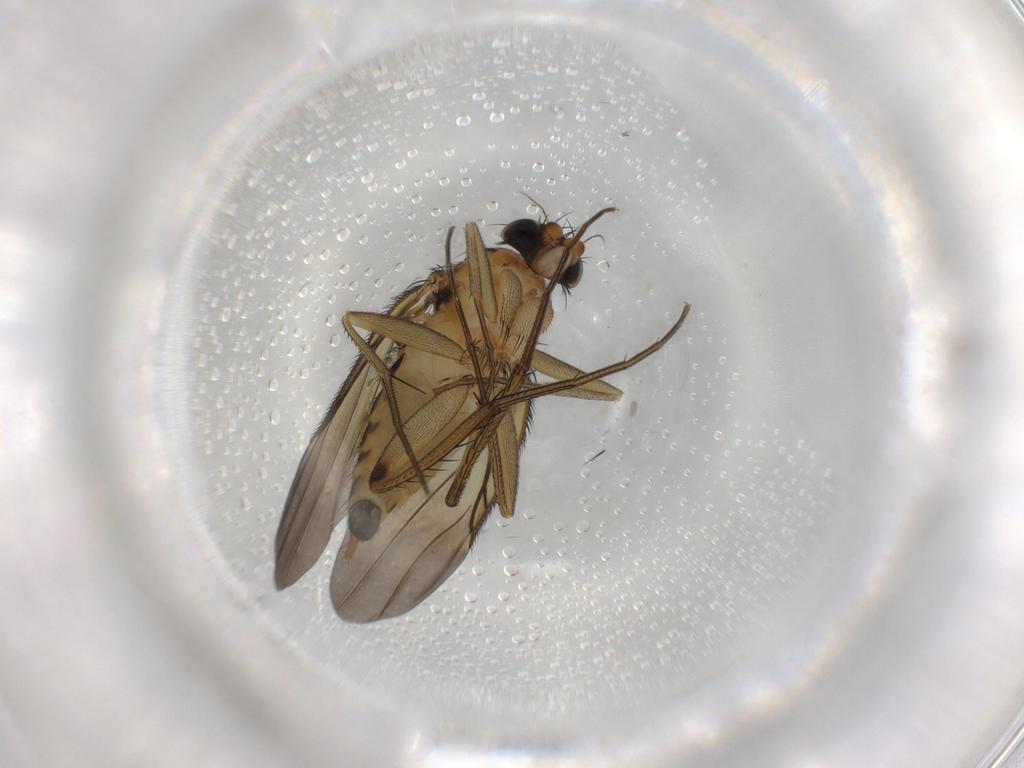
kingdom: Animalia
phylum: Arthropoda
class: Insecta
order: Diptera
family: Phoridae
